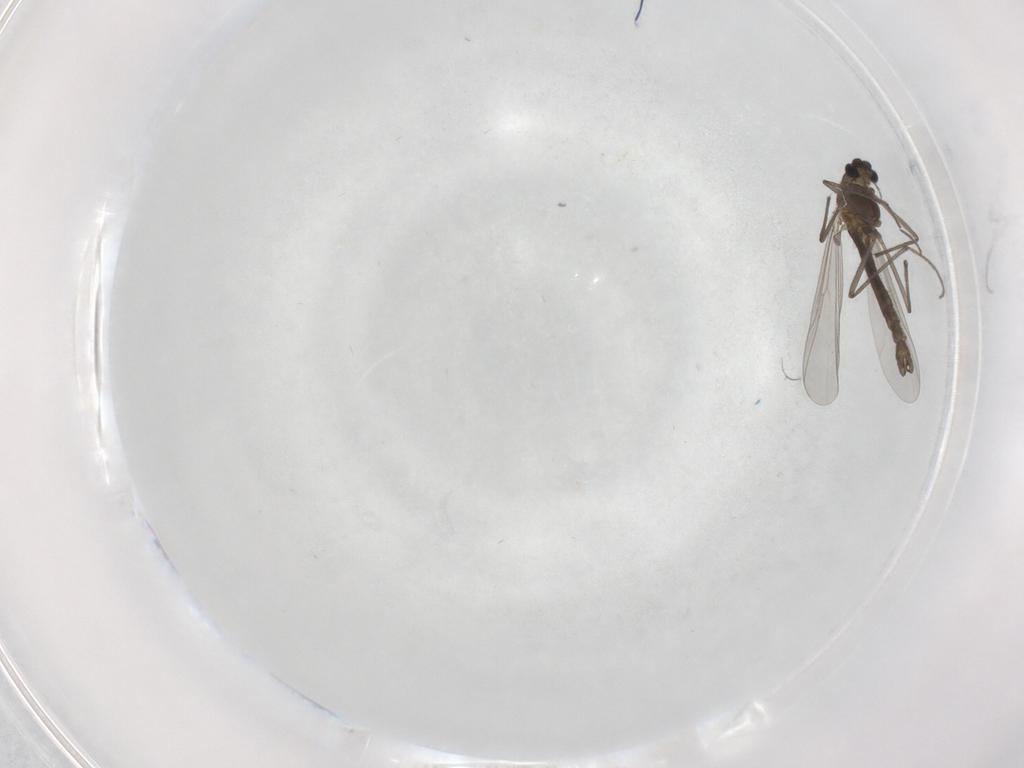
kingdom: Animalia
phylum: Arthropoda
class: Insecta
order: Diptera
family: Chironomidae
